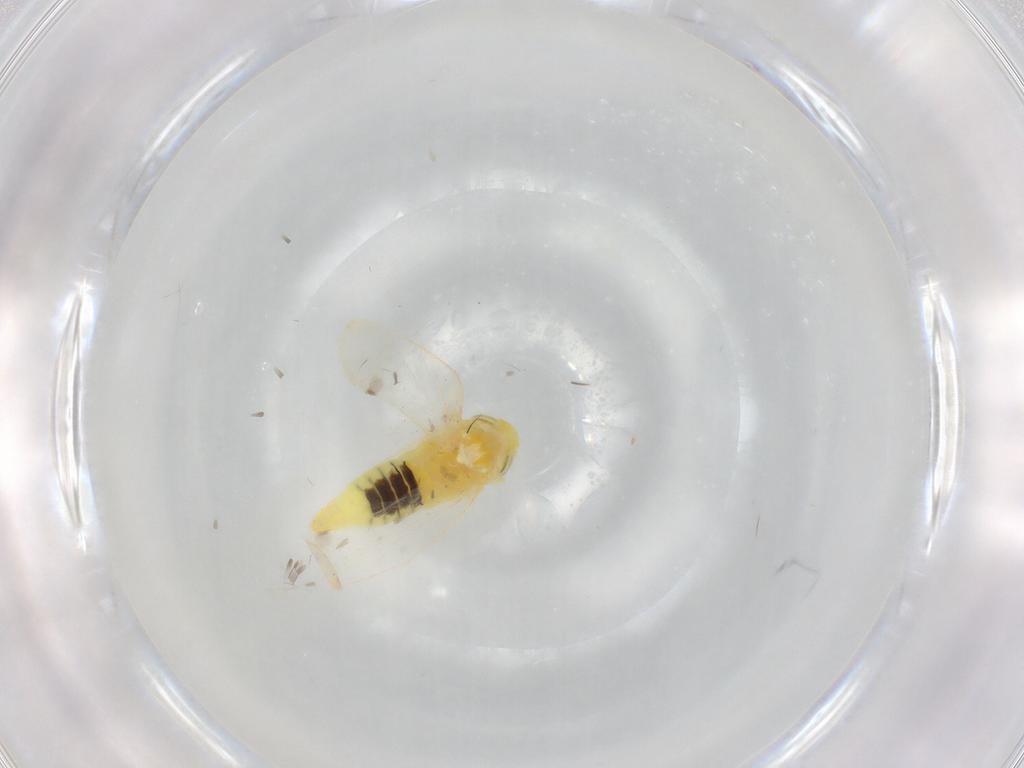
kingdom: Animalia
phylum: Arthropoda
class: Insecta
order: Hemiptera
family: Cicadellidae
